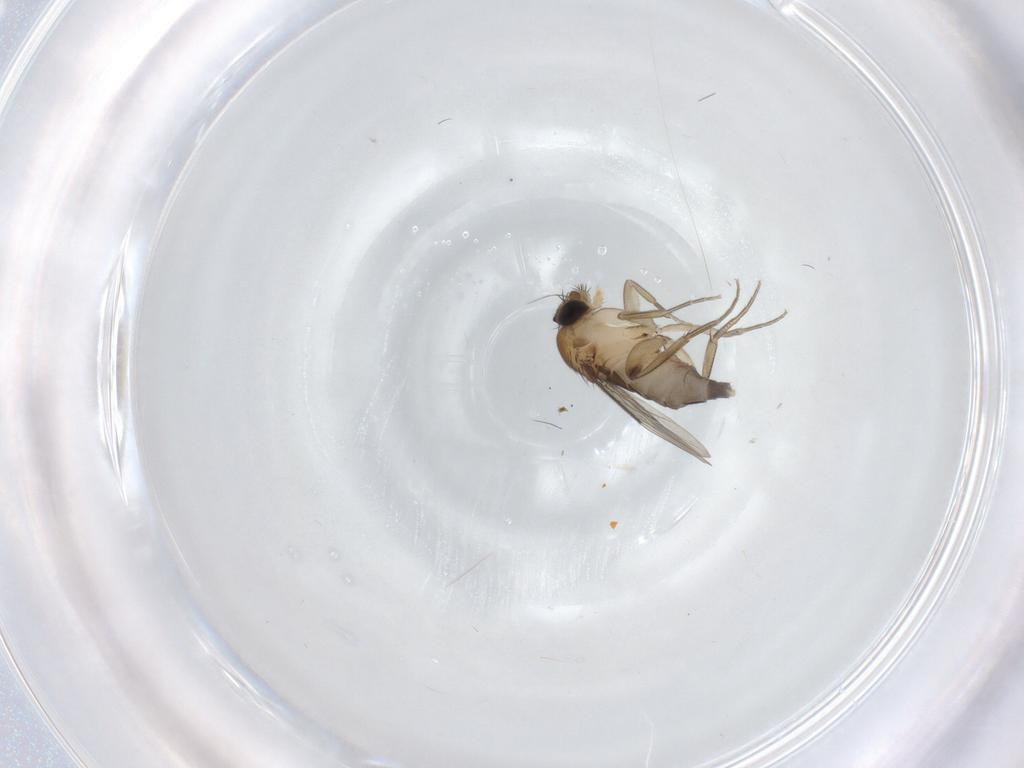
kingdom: Animalia
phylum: Arthropoda
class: Insecta
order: Diptera
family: Phoridae
